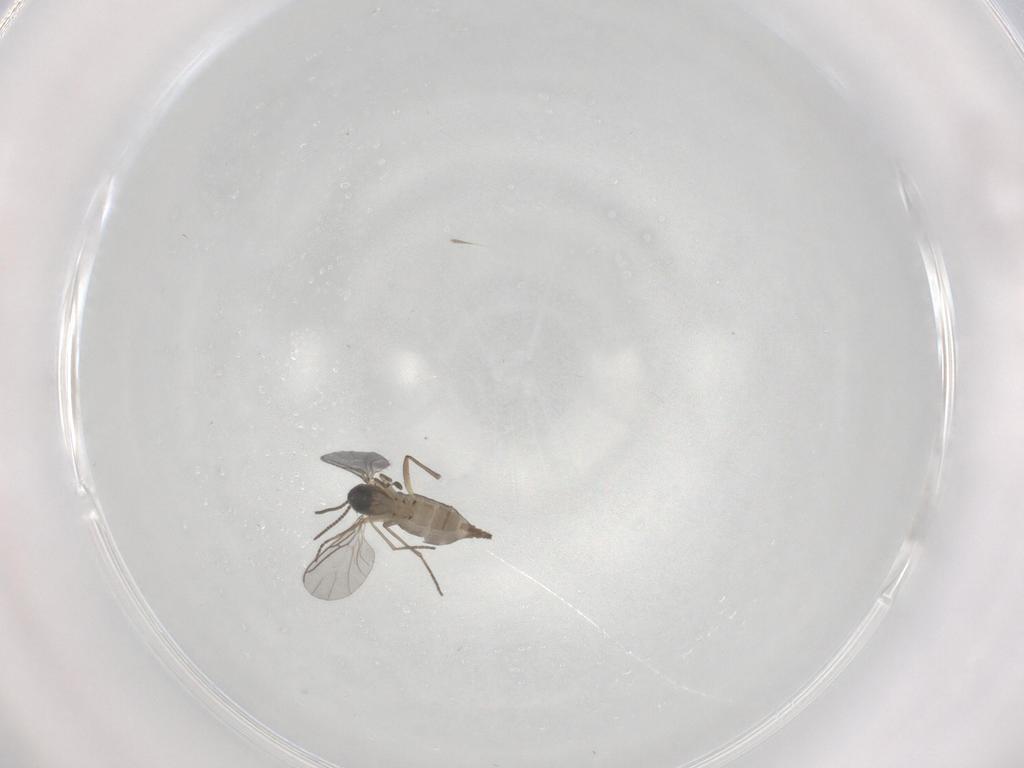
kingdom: Animalia
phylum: Arthropoda
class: Insecta
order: Diptera
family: Sciaridae
